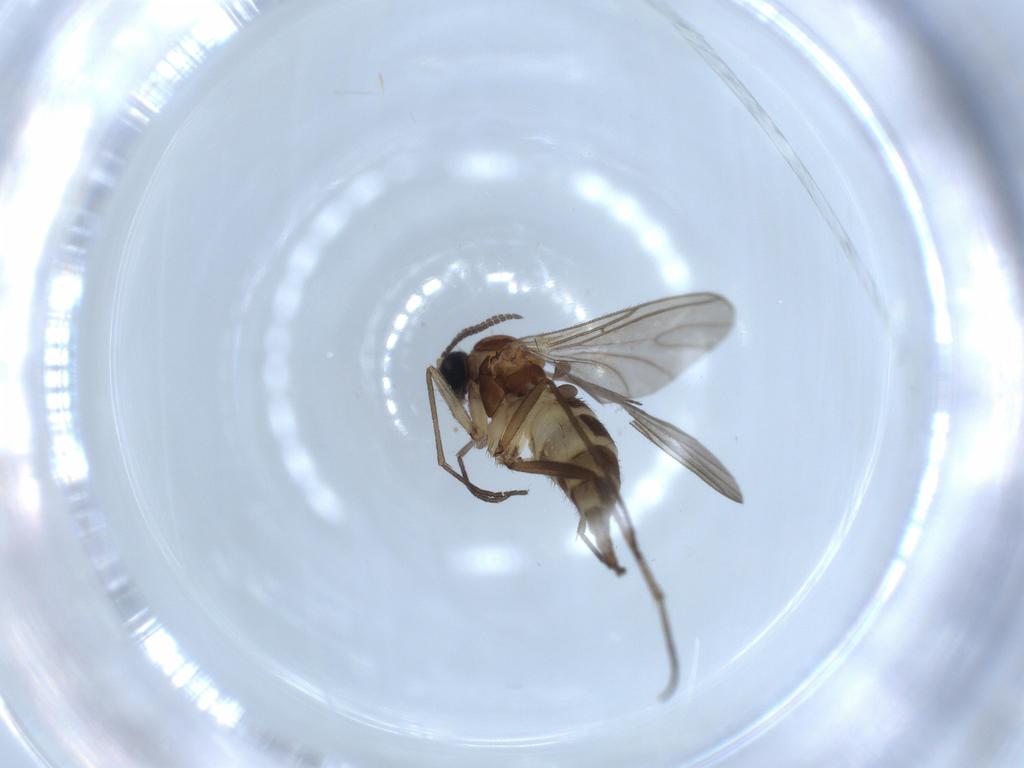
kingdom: Animalia
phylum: Arthropoda
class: Insecta
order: Diptera
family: Sciaridae
